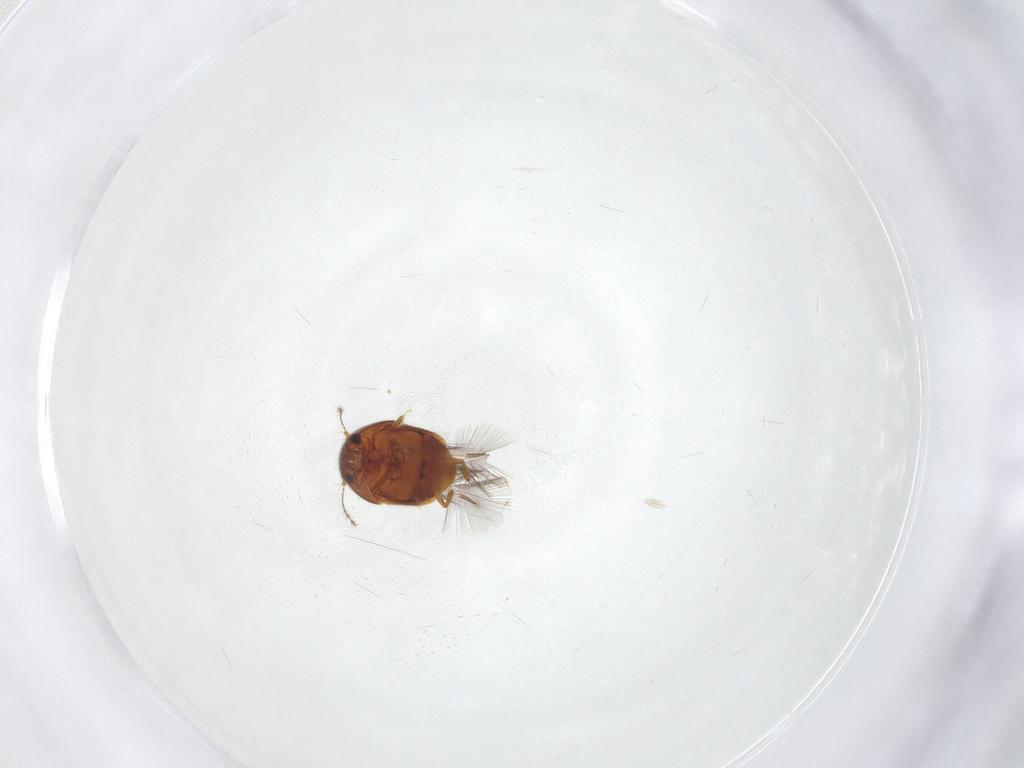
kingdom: Animalia
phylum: Arthropoda
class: Insecta
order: Coleoptera
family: Ptiliidae
